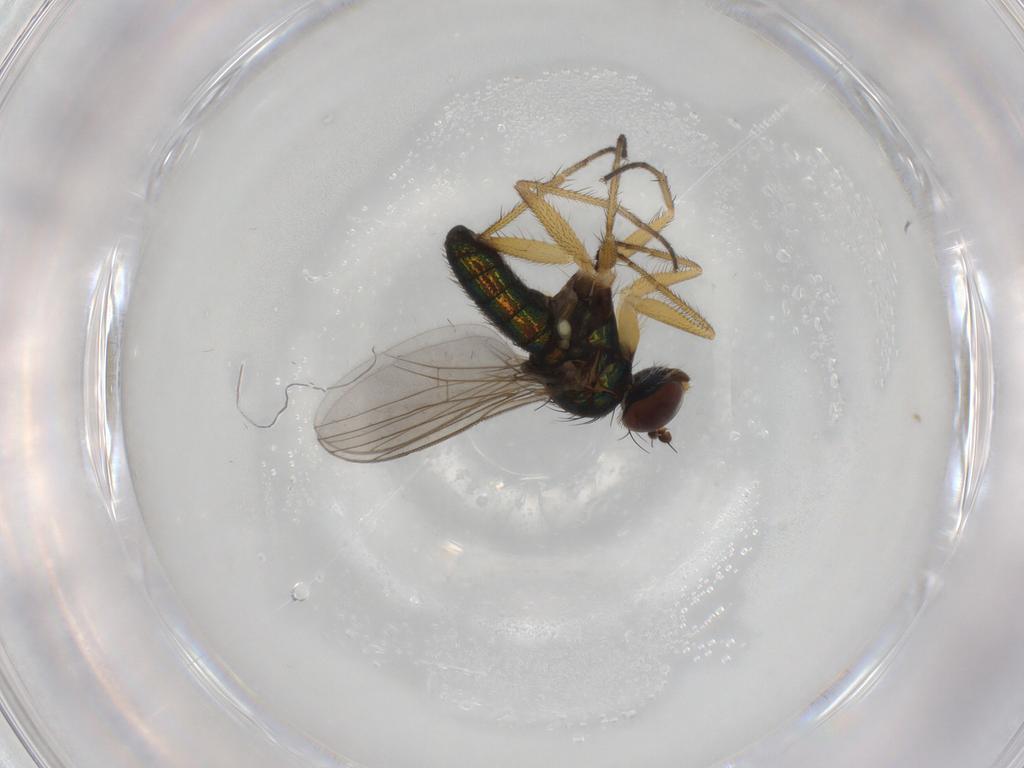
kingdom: Animalia
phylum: Arthropoda
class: Insecta
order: Diptera
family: Dolichopodidae
